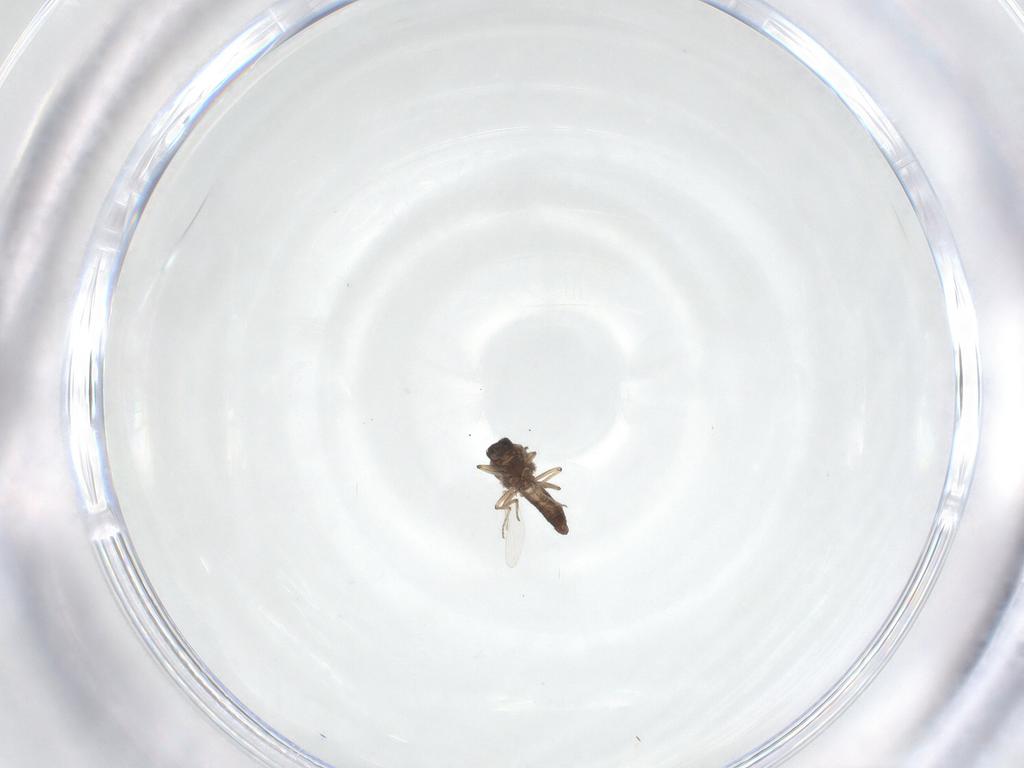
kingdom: Animalia
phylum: Arthropoda
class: Insecta
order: Diptera
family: Ceratopogonidae
